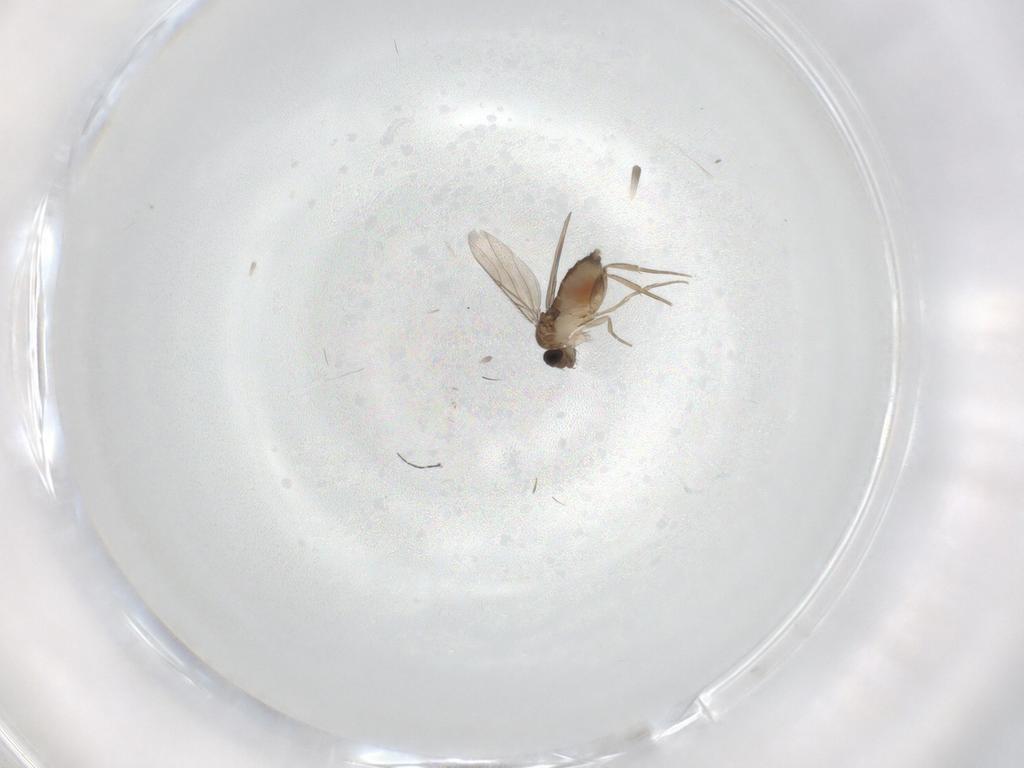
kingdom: Animalia
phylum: Arthropoda
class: Insecta
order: Diptera
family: Phoridae
